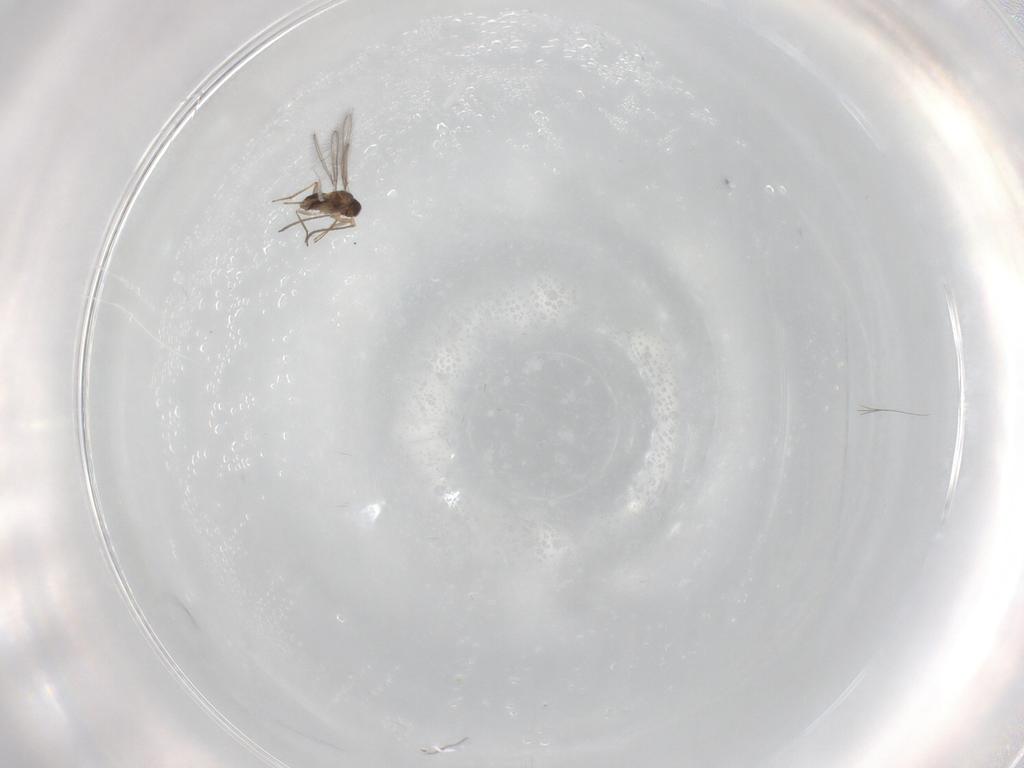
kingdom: Animalia
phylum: Arthropoda
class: Insecta
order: Hymenoptera
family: Mymaridae
